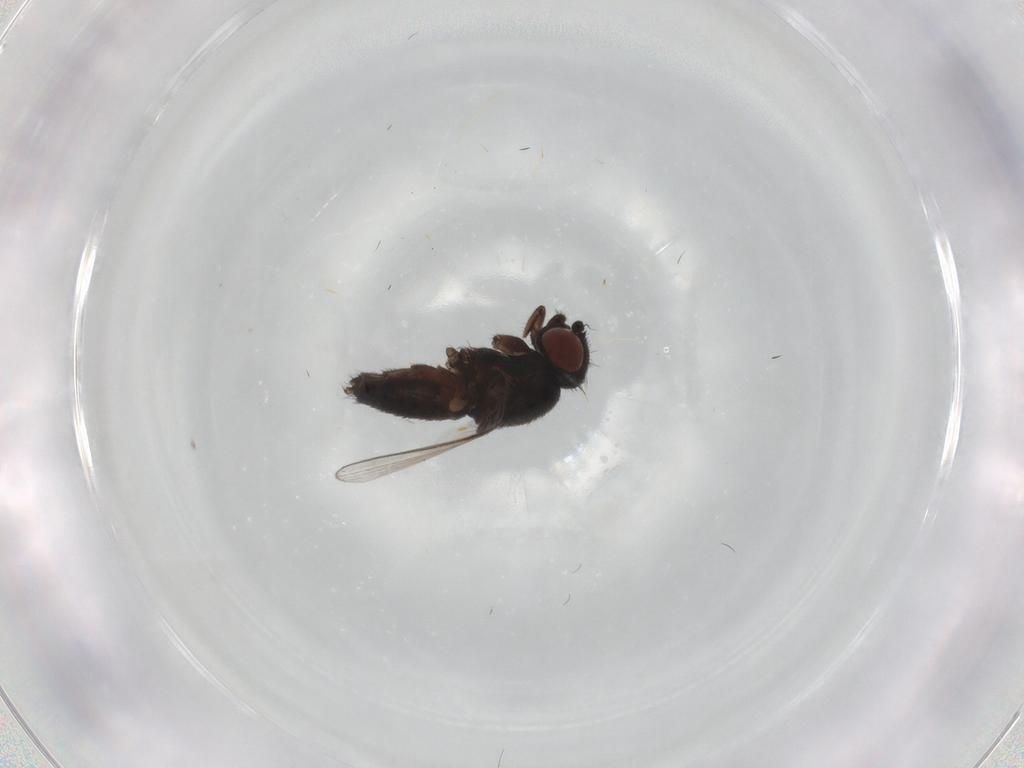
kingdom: Animalia
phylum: Arthropoda
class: Insecta
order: Diptera
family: Milichiidae
